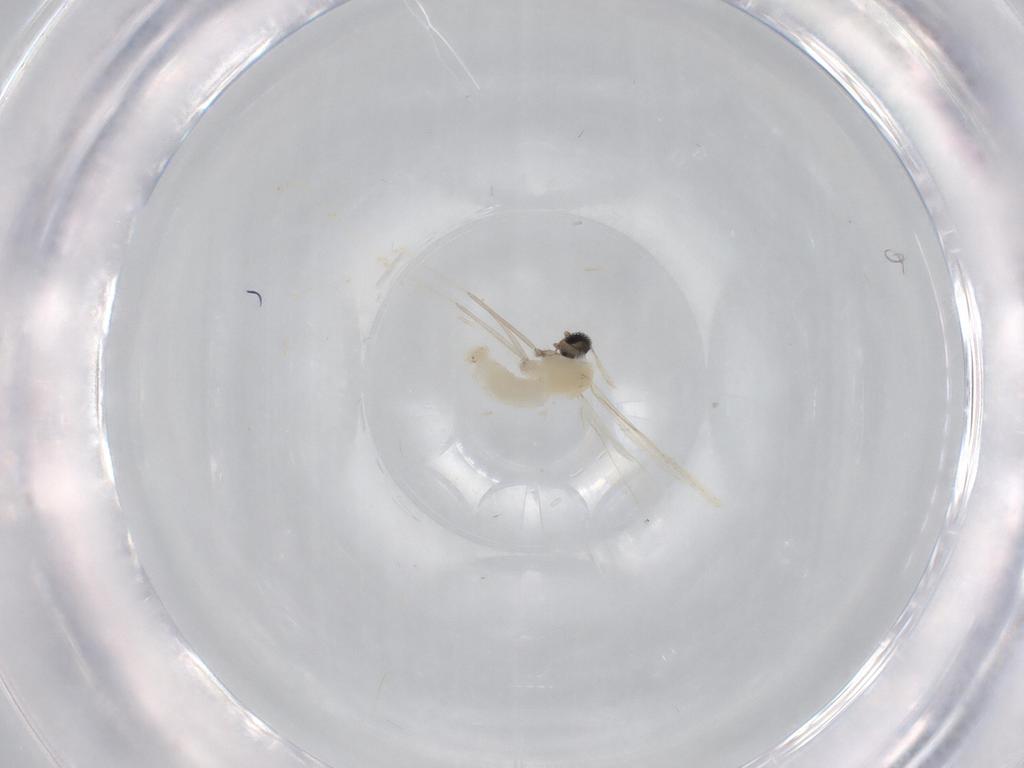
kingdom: Animalia
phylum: Arthropoda
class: Insecta
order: Diptera
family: Cecidomyiidae
